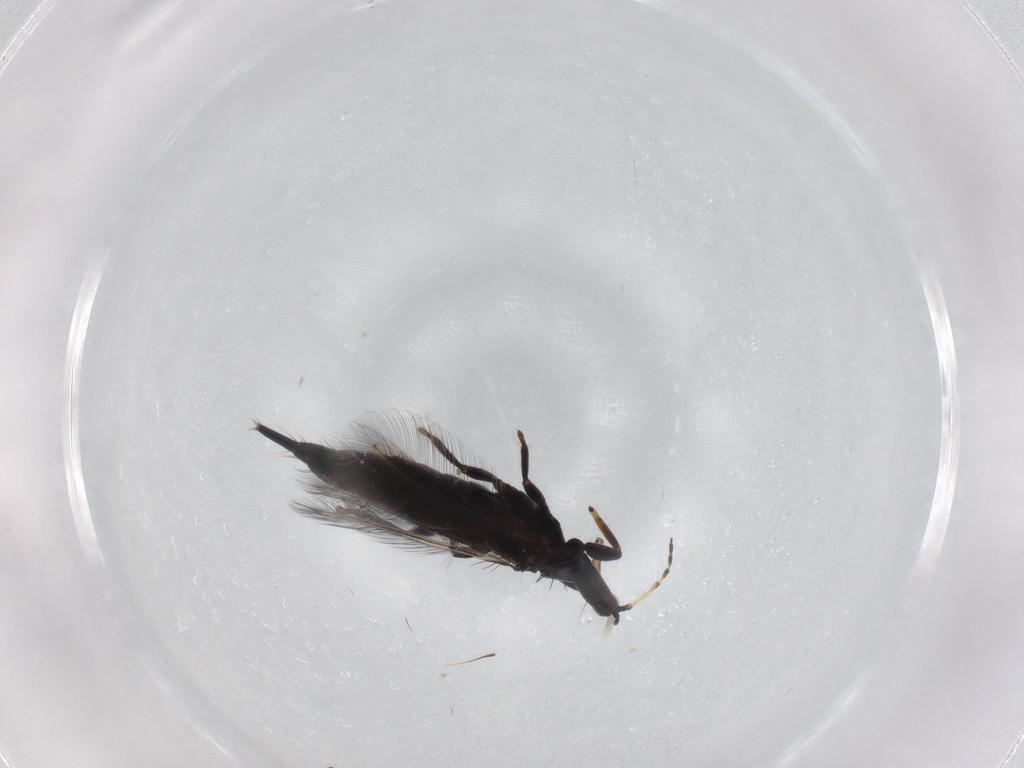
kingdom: Animalia
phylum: Arthropoda
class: Insecta
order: Thysanoptera
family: Phlaeothripidae
